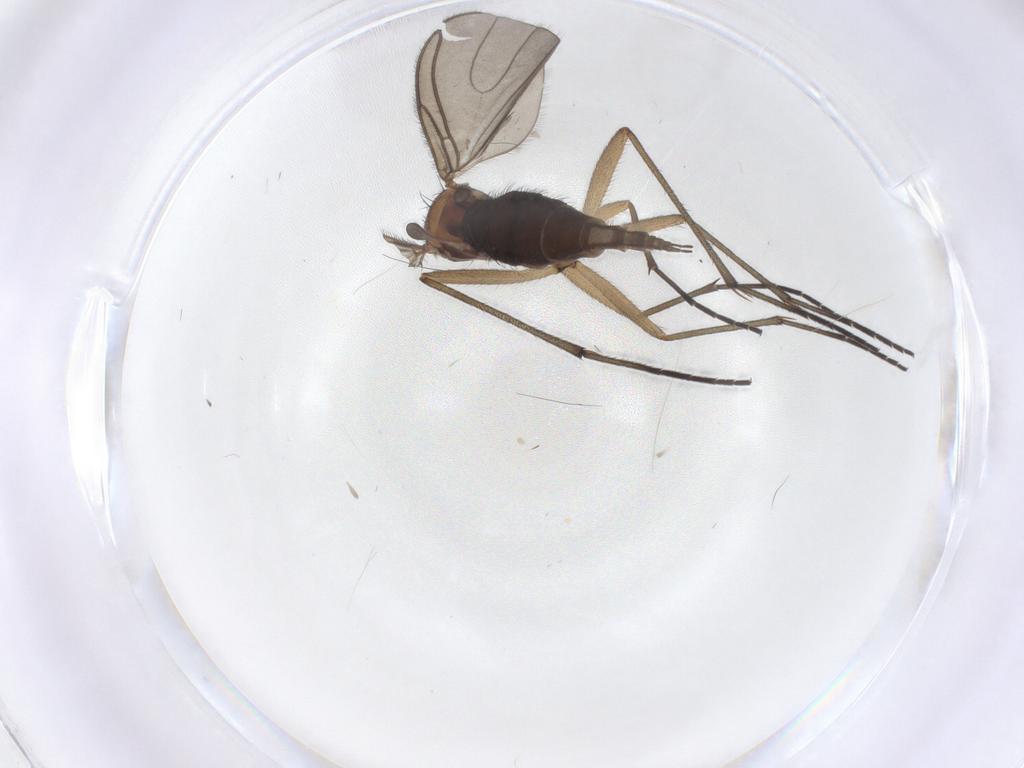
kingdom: Animalia
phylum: Arthropoda
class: Insecta
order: Diptera
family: Sciaridae
